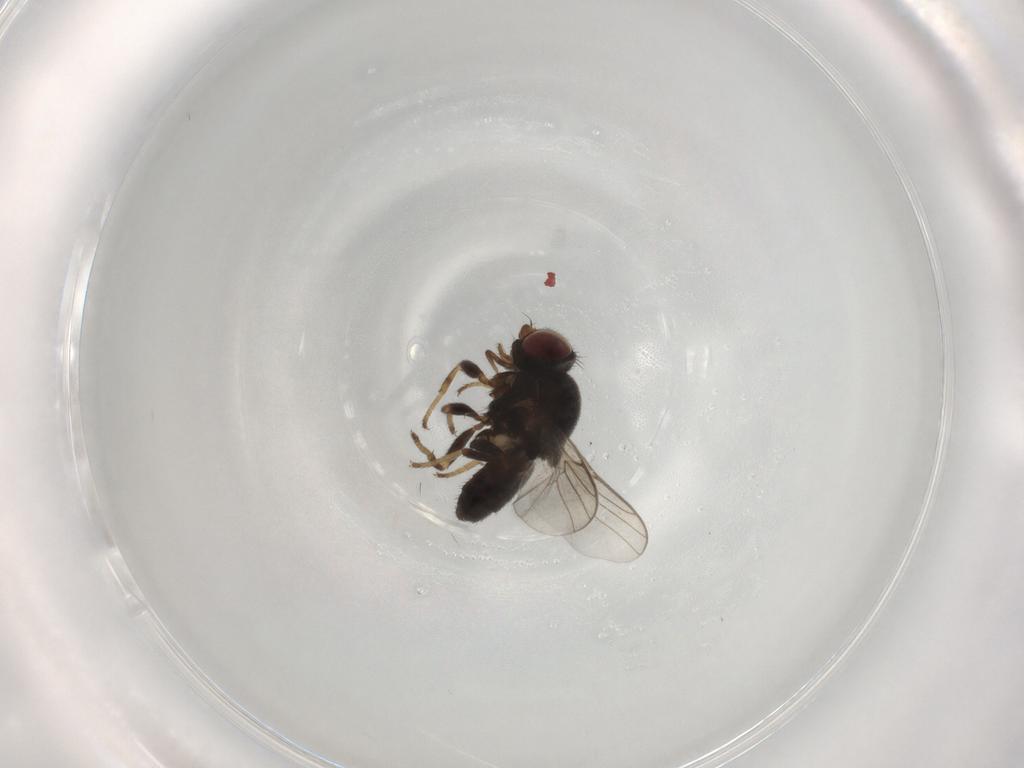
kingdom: Animalia
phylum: Arthropoda
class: Insecta
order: Diptera
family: Chloropidae
